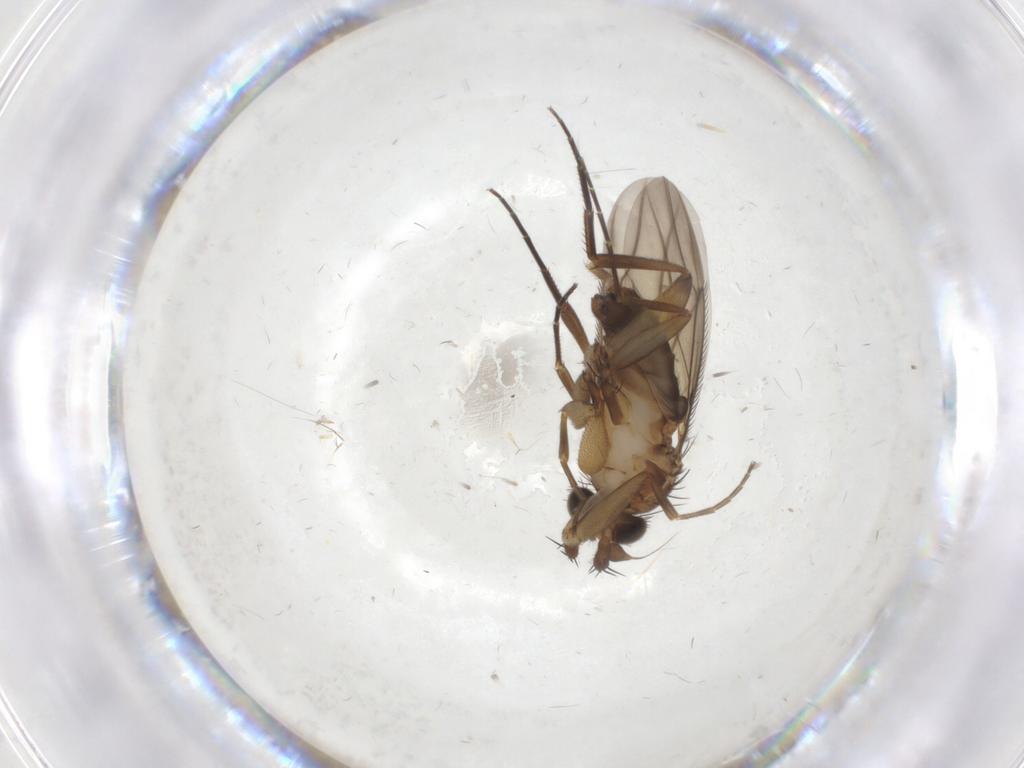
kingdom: Animalia
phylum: Arthropoda
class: Insecta
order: Diptera
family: Phoridae
